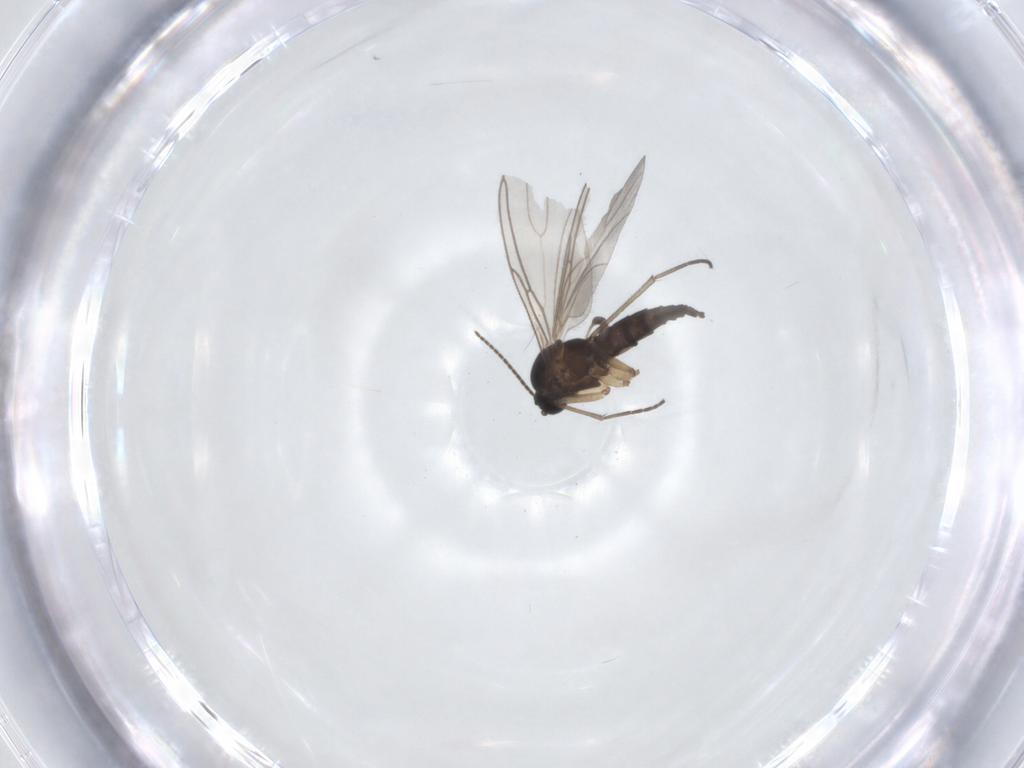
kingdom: Animalia
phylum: Arthropoda
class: Insecta
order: Diptera
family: Sciaridae
